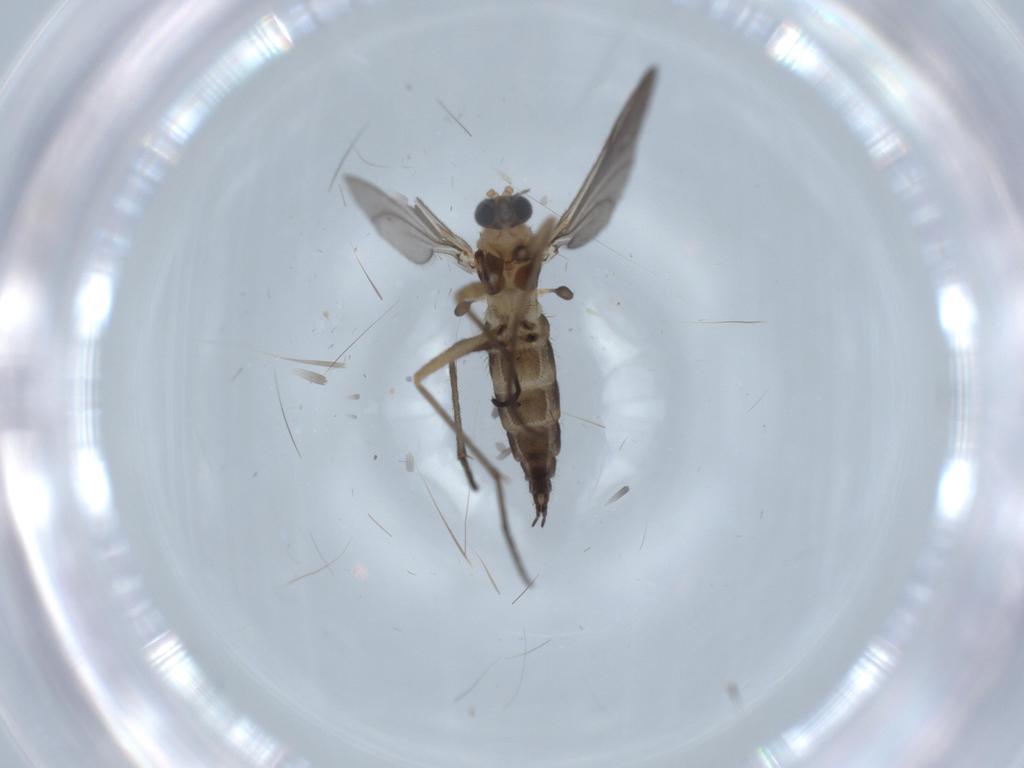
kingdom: Animalia
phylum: Arthropoda
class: Insecta
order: Diptera
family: Sciaridae
